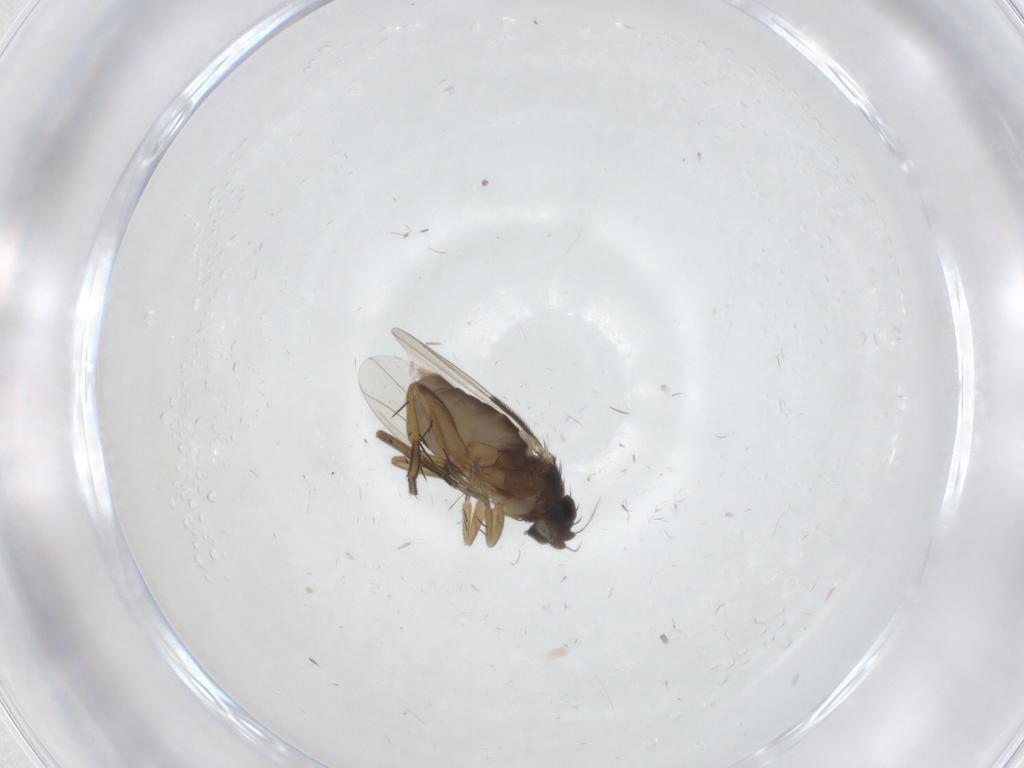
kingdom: Animalia
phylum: Arthropoda
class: Insecta
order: Diptera
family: Phoridae
